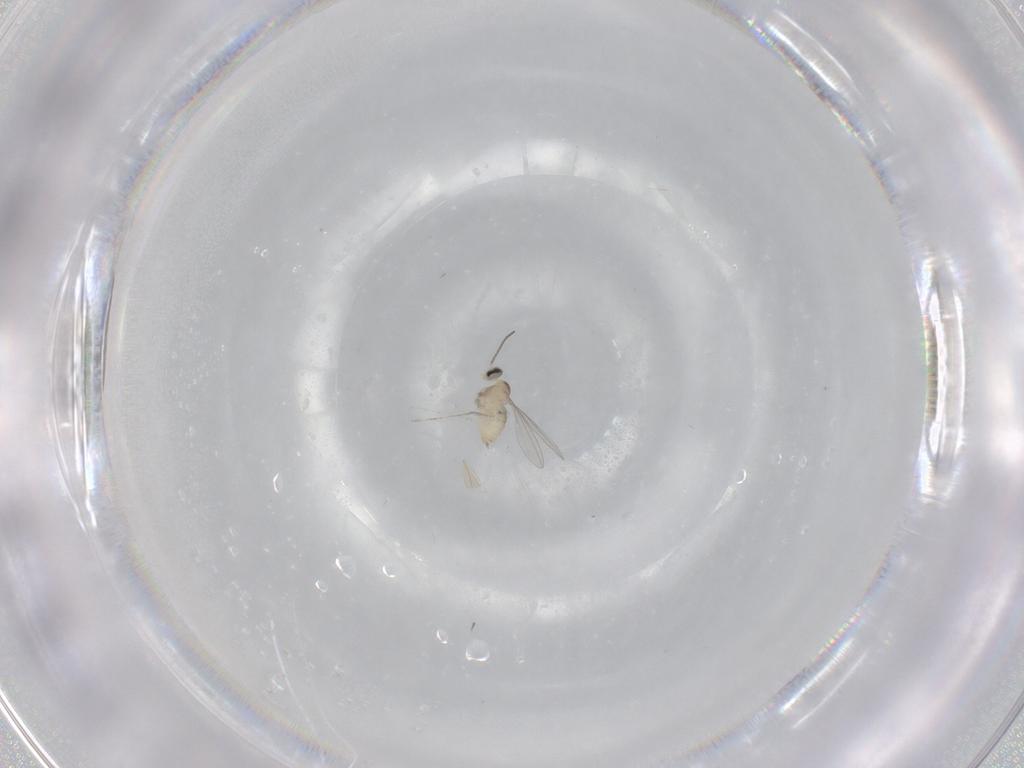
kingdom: Animalia
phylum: Arthropoda
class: Insecta
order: Diptera
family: Cecidomyiidae
